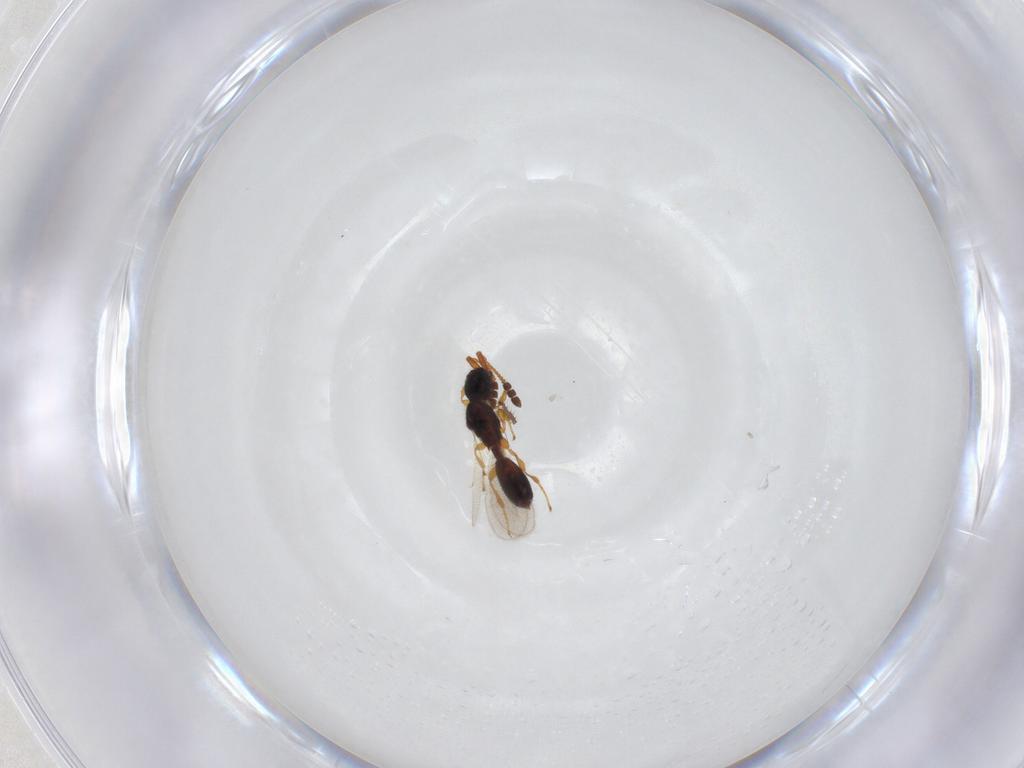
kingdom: Animalia
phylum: Arthropoda
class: Insecta
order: Hymenoptera
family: Diapriidae
